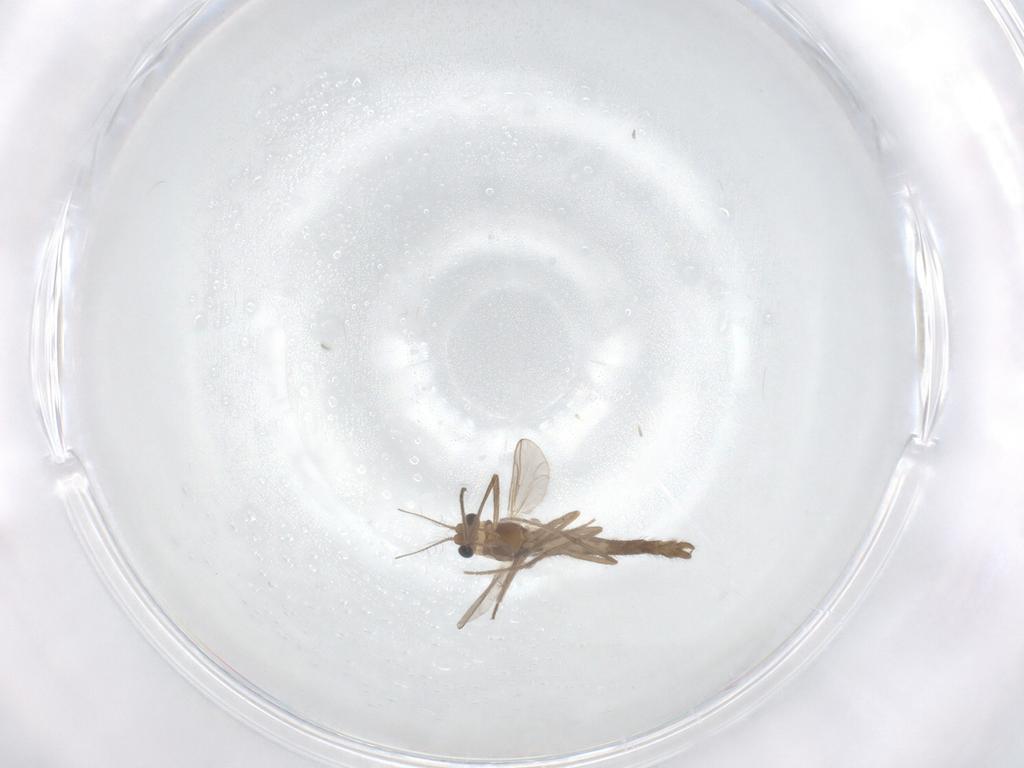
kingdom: Animalia
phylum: Arthropoda
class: Insecta
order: Diptera
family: Chironomidae
